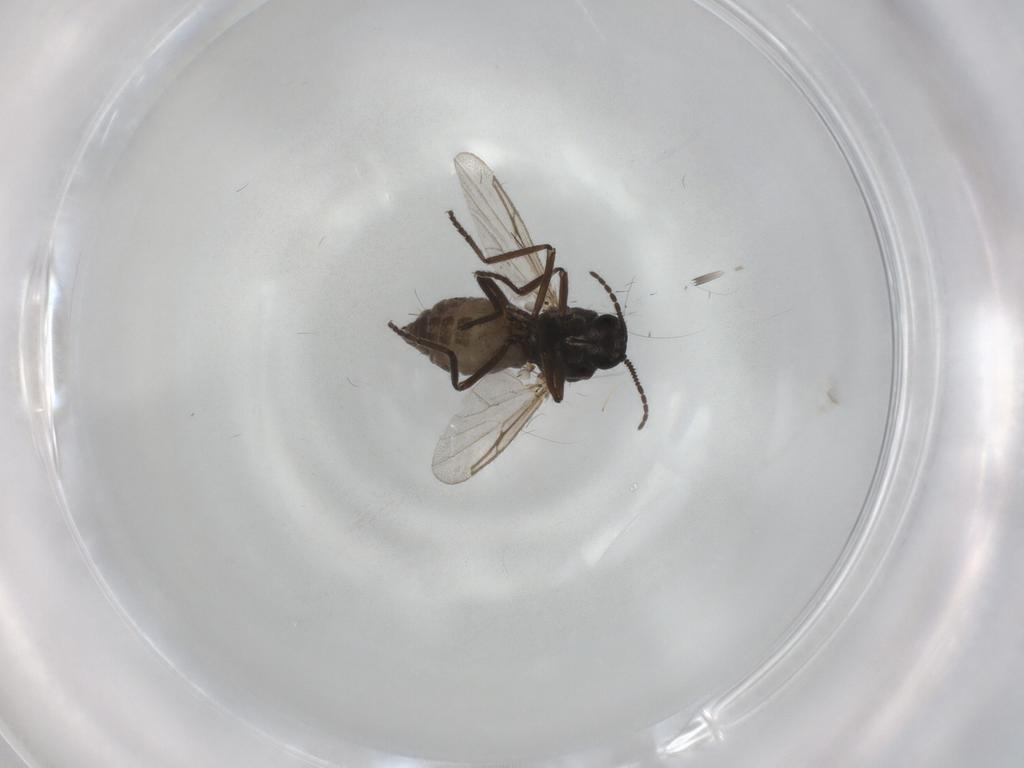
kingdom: Animalia
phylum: Arthropoda
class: Insecta
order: Diptera
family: Ceratopogonidae
